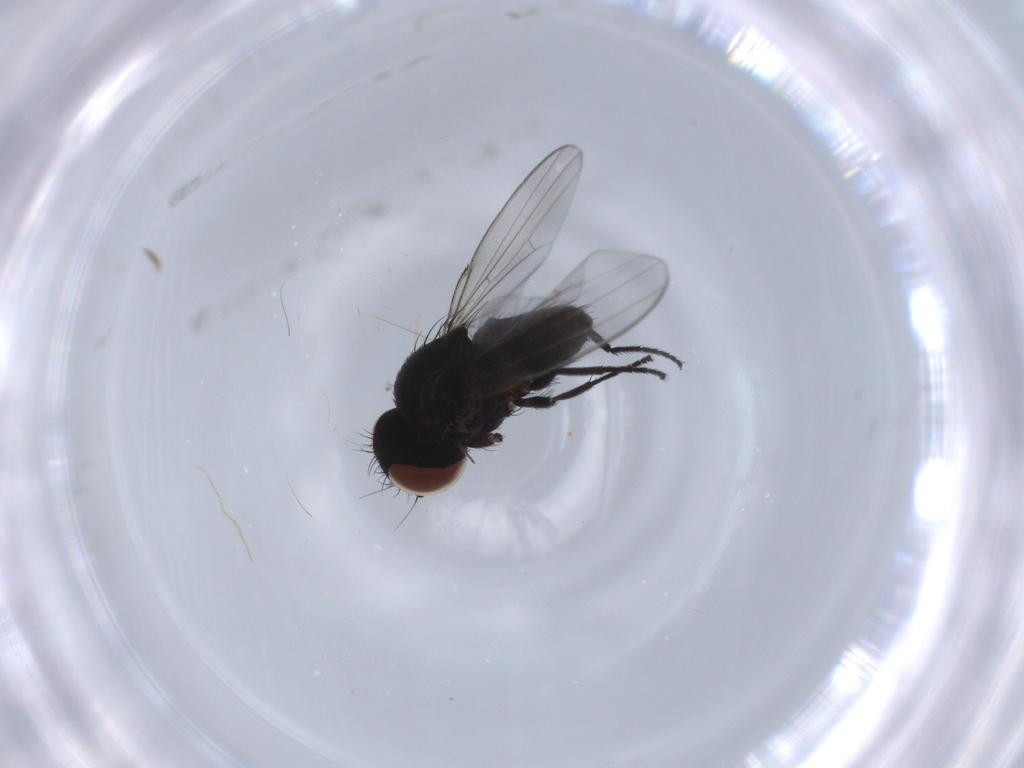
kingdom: Animalia
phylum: Arthropoda
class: Insecta
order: Diptera
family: Milichiidae
